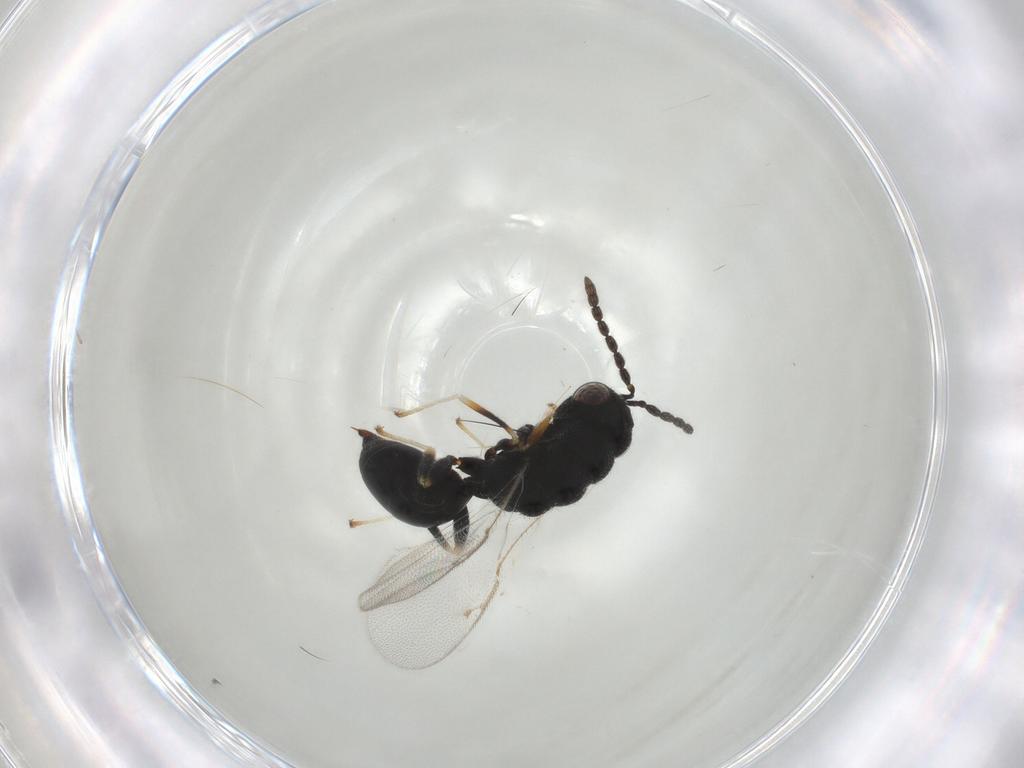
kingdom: Animalia
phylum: Arthropoda
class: Insecta
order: Hymenoptera
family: Eurytomidae
